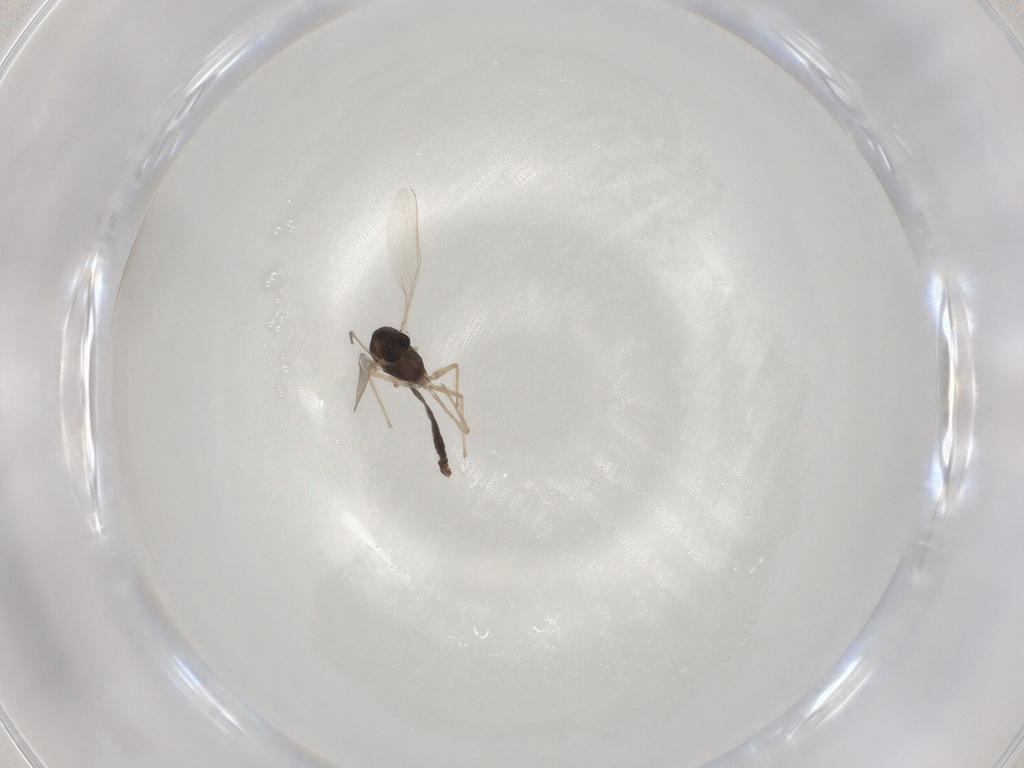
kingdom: Animalia
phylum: Arthropoda
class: Insecta
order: Diptera
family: Chironomidae
